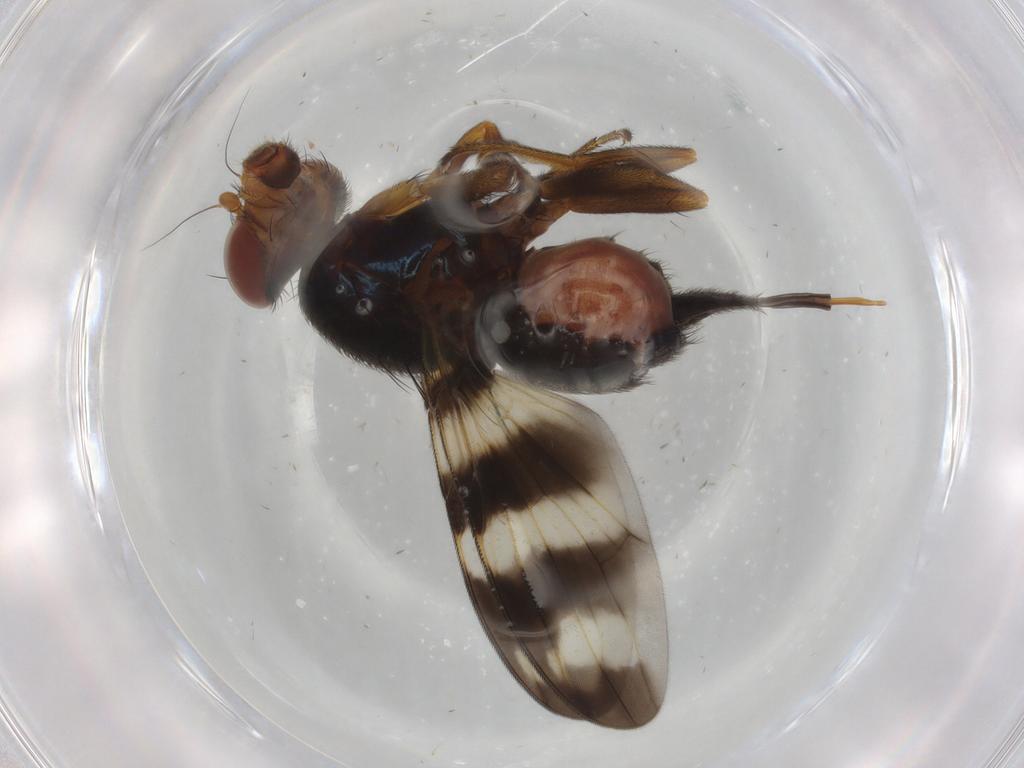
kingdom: Animalia
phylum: Arthropoda
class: Insecta
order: Diptera
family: Ulidiidae
